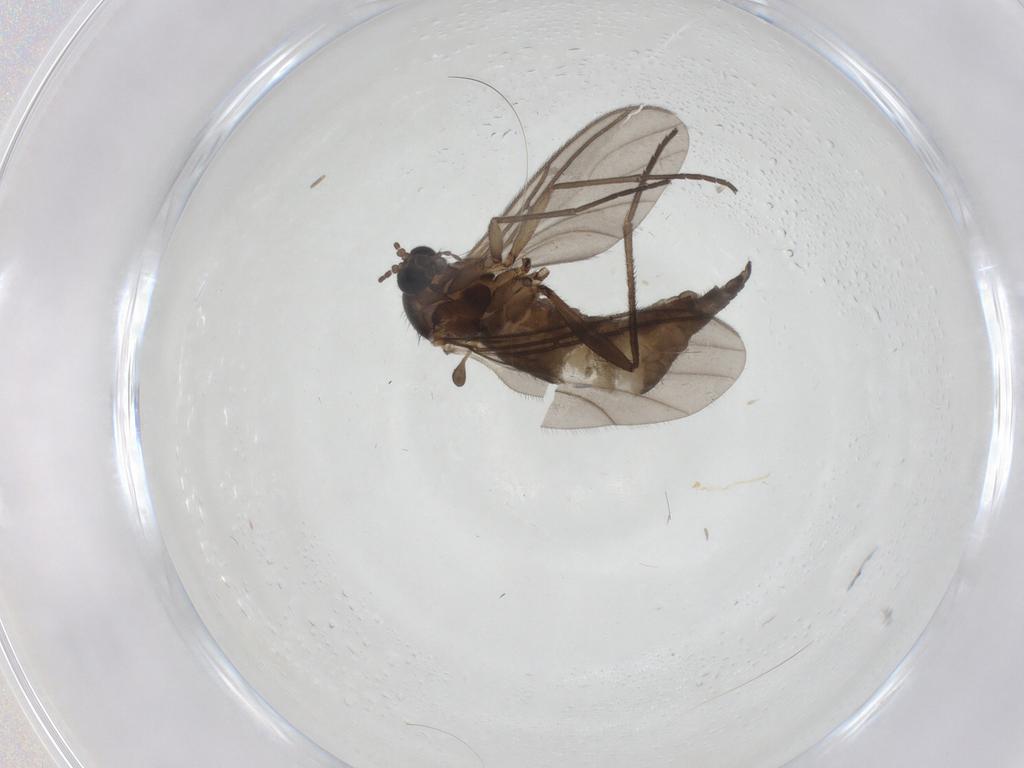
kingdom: Animalia
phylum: Arthropoda
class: Insecta
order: Diptera
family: Sciaridae
